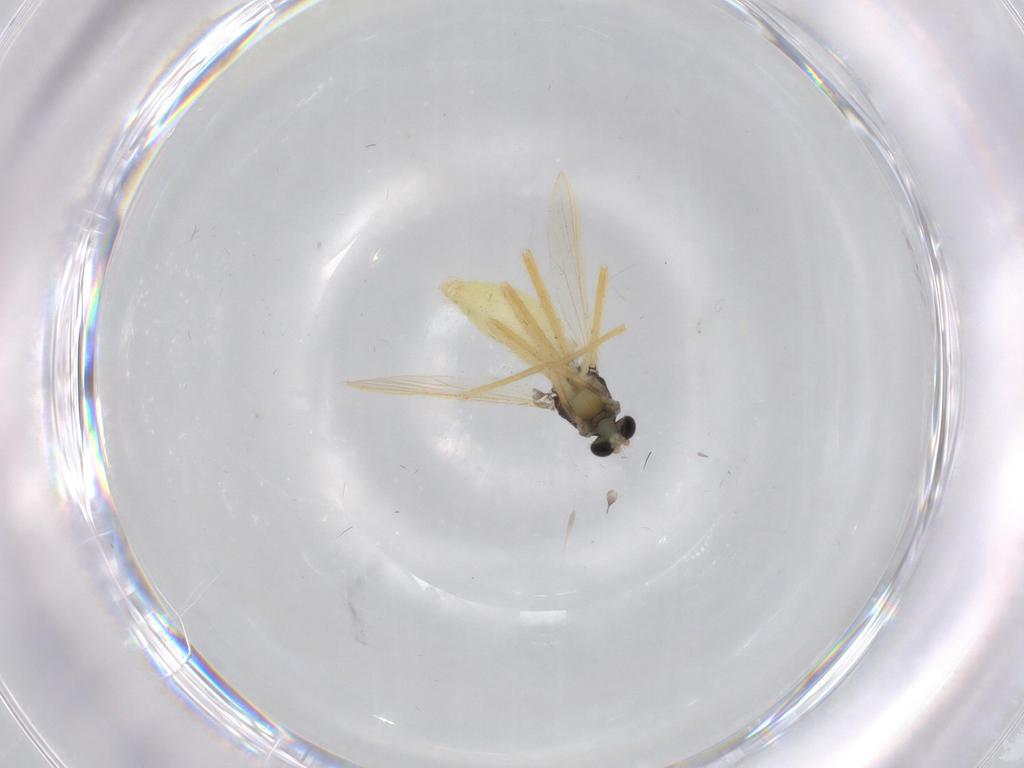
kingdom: Animalia
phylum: Arthropoda
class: Insecta
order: Diptera
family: Chironomidae
